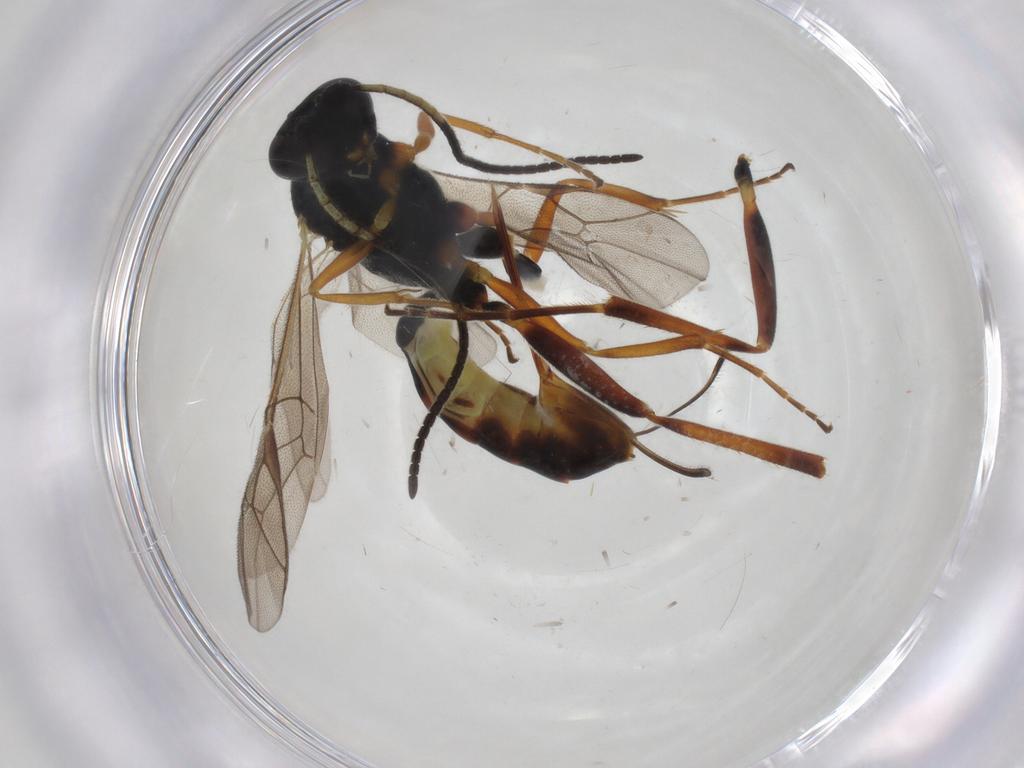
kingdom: Animalia
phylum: Arthropoda
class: Insecta
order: Hymenoptera
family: Ichneumonidae
